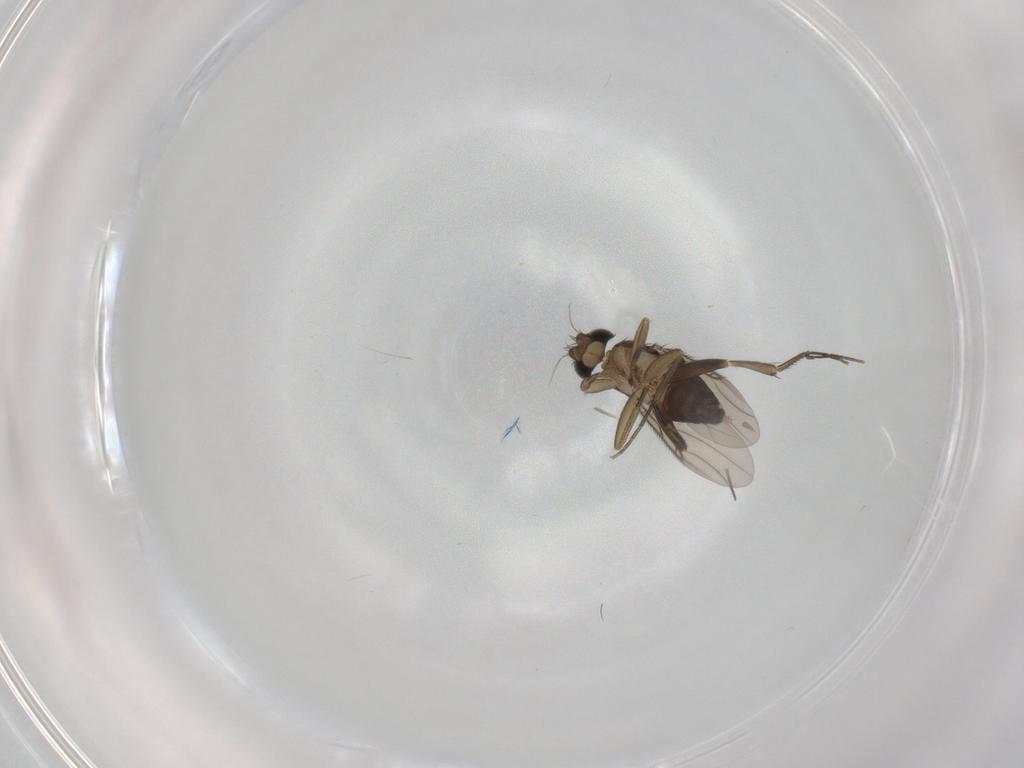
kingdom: Animalia
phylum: Arthropoda
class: Insecta
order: Diptera
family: Phoridae
